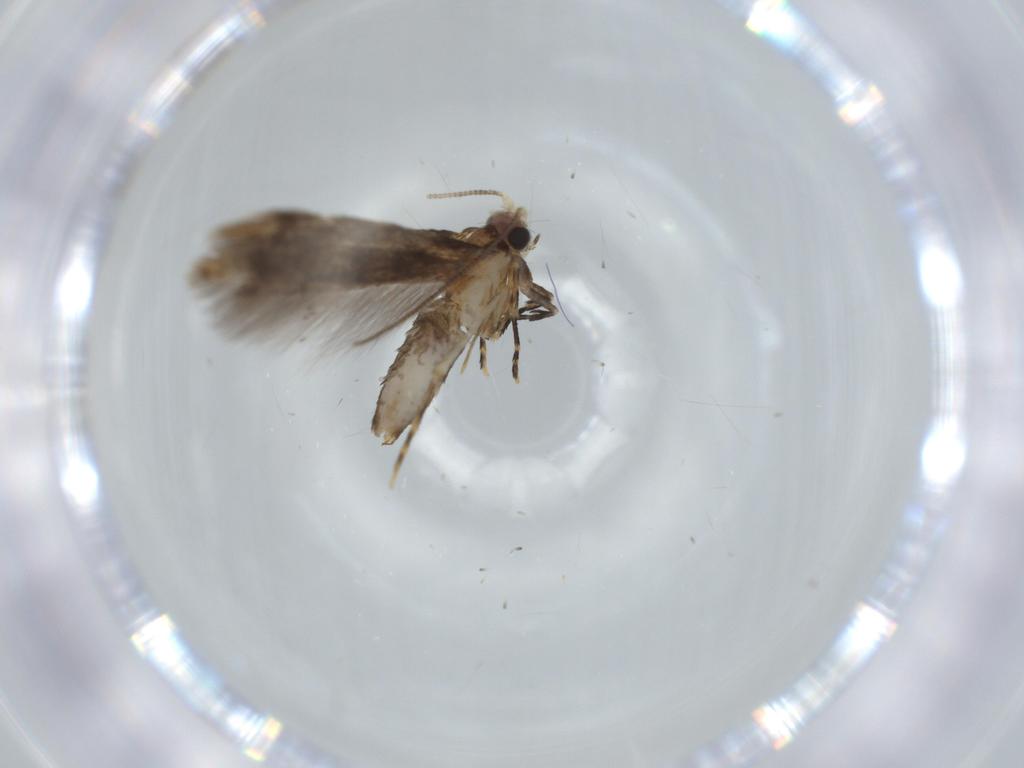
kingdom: Animalia
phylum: Arthropoda
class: Insecta
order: Lepidoptera
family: Tineidae
